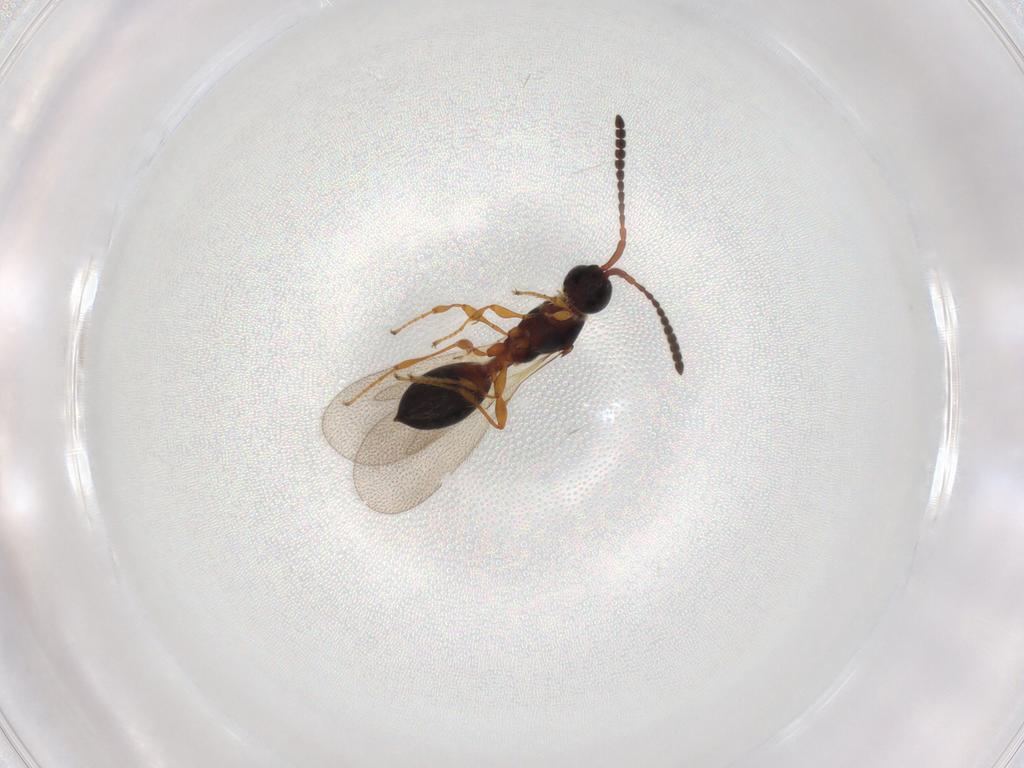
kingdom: Animalia
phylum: Arthropoda
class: Insecta
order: Hymenoptera
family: Diapriidae
